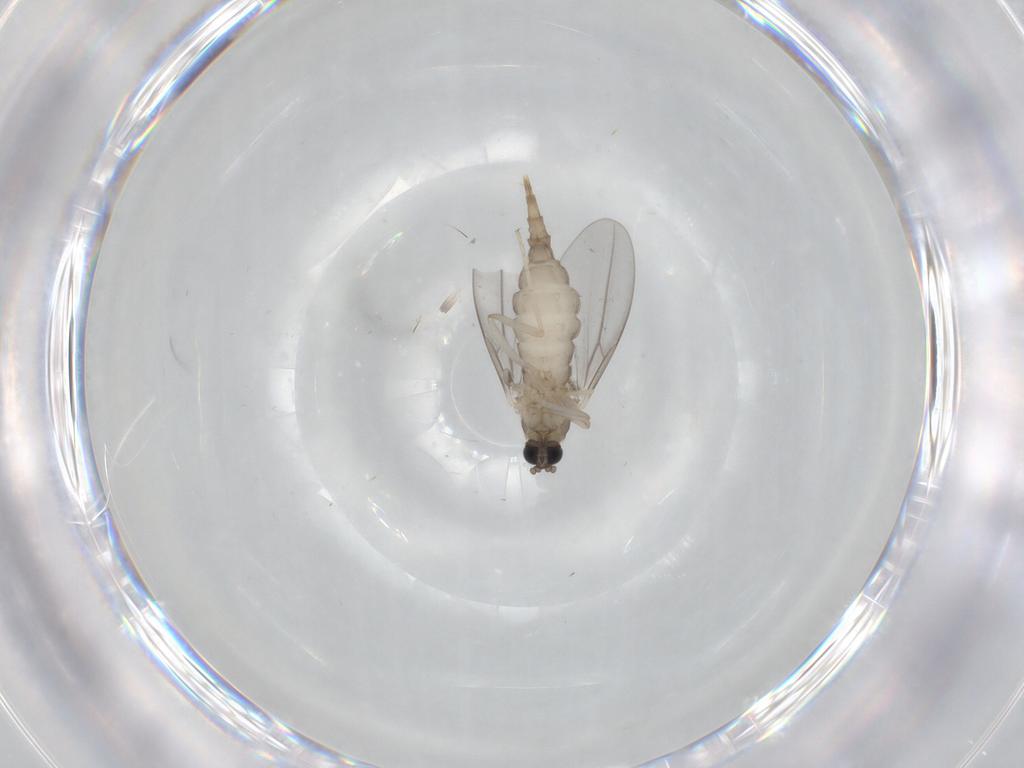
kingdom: Animalia
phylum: Arthropoda
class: Insecta
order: Diptera
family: Cecidomyiidae
